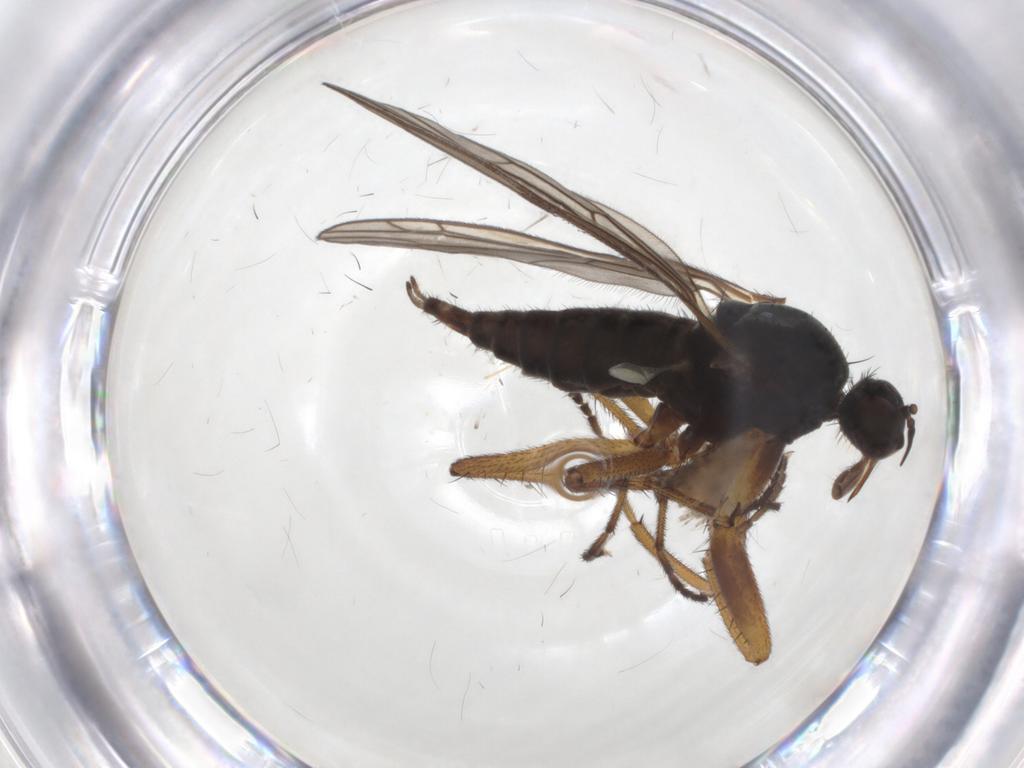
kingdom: Animalia
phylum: Arthropoda
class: Insecta
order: Diptera
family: Chironomidae
